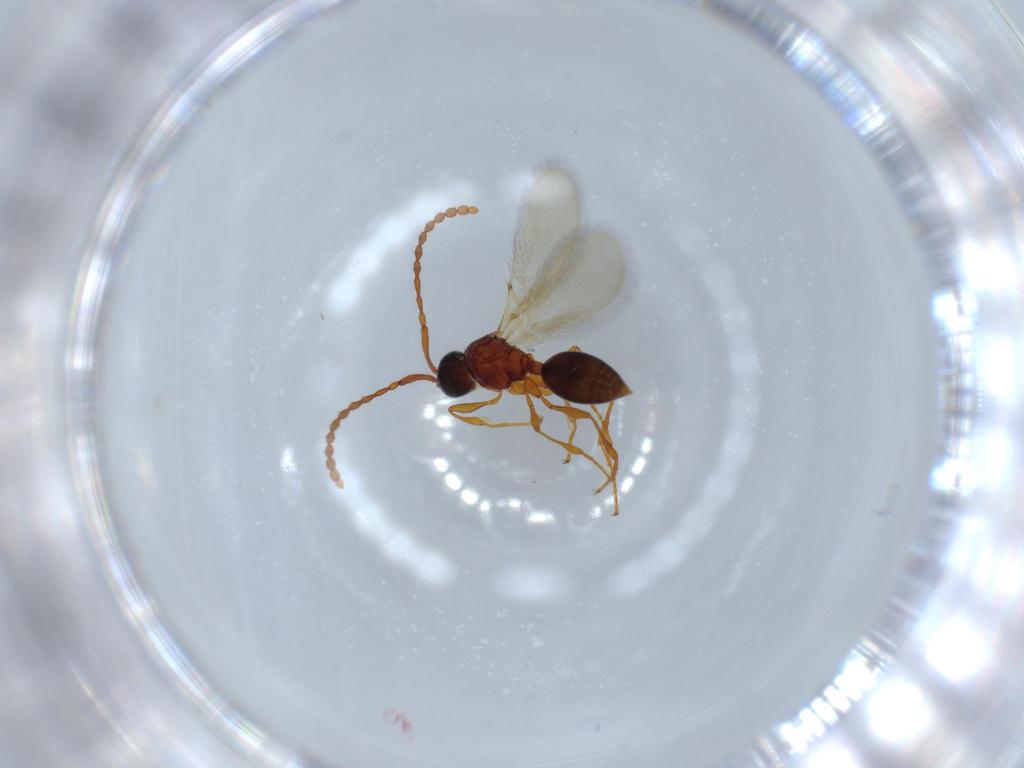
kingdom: Animalia
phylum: Arthropoda
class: Insecta
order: Hymenoptera
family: Diapriidae
